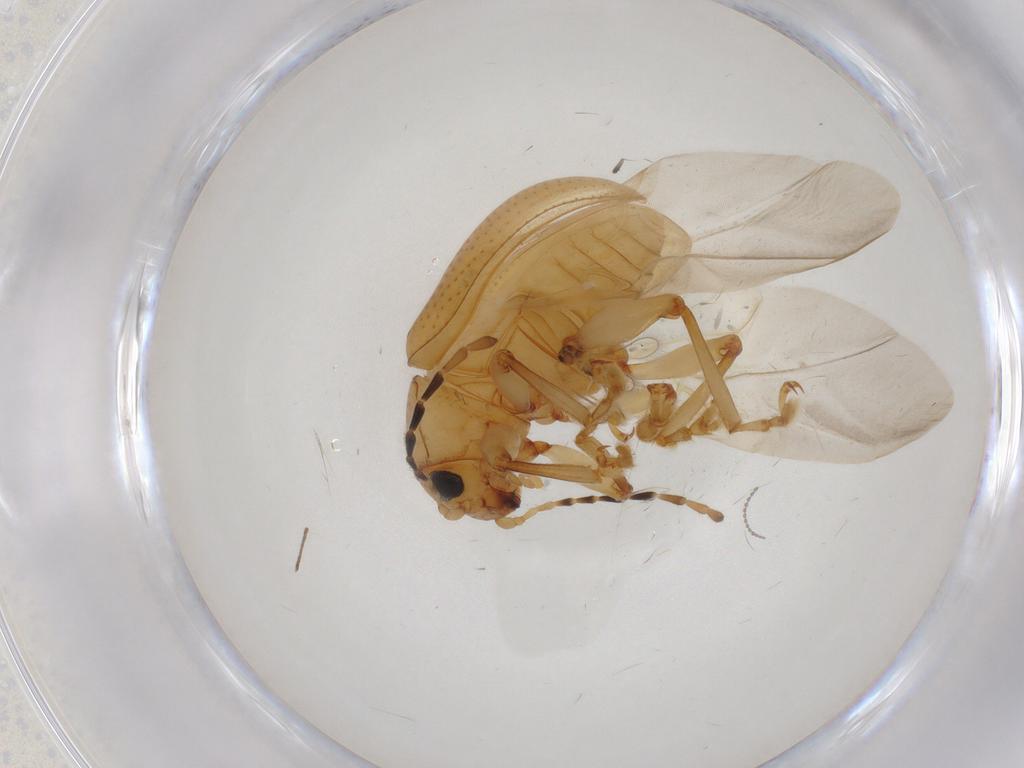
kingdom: Animalia
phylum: Arthropoda
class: Insecta
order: Coleoptera
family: Chrysomelidae
